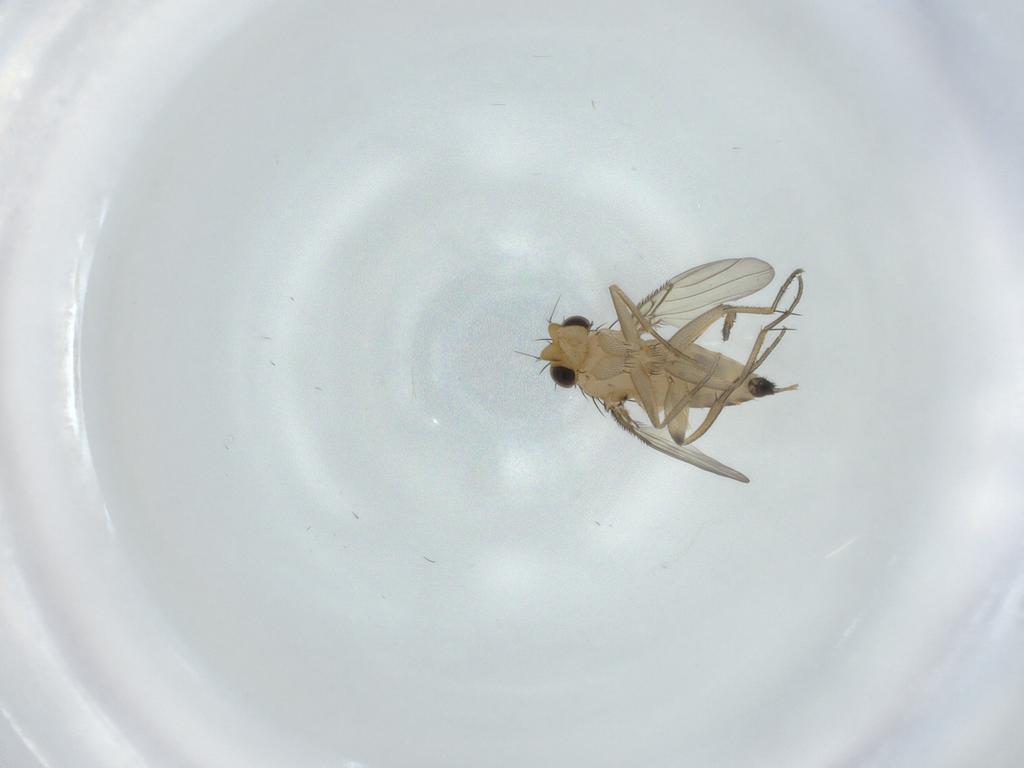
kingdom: Animalia
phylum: Arthropoda
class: Insecta
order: Diptera
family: Phoridae
